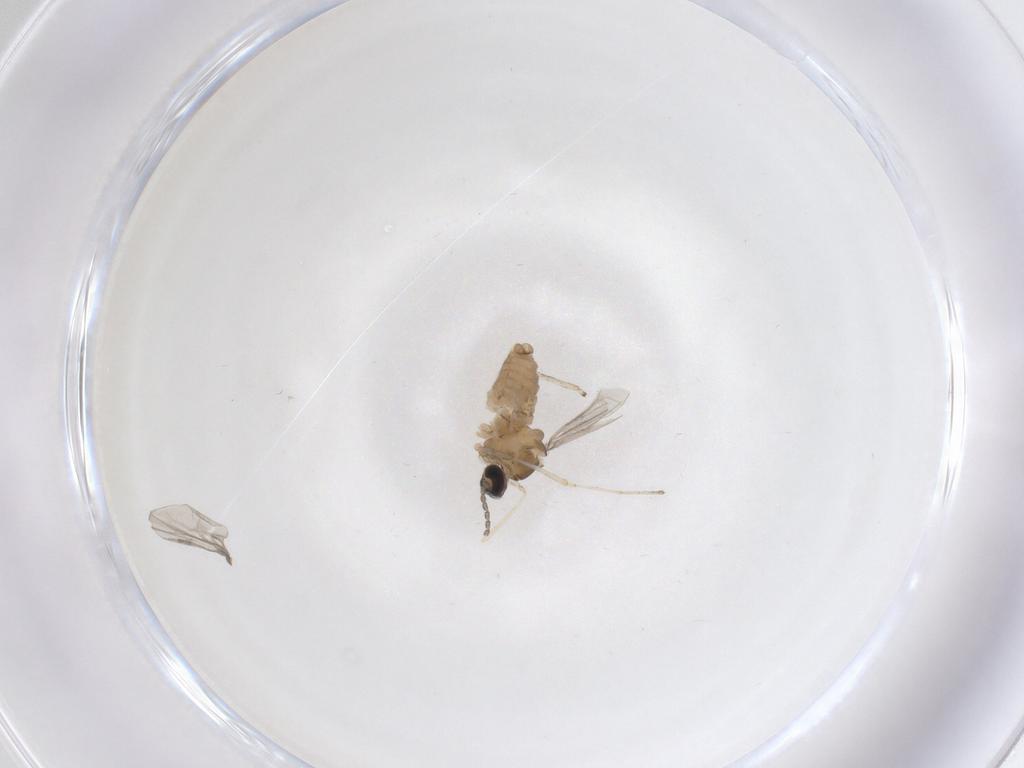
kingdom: Animalia
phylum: Arthropoda
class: Insecta
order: Diptera
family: Cecidomyiidae
